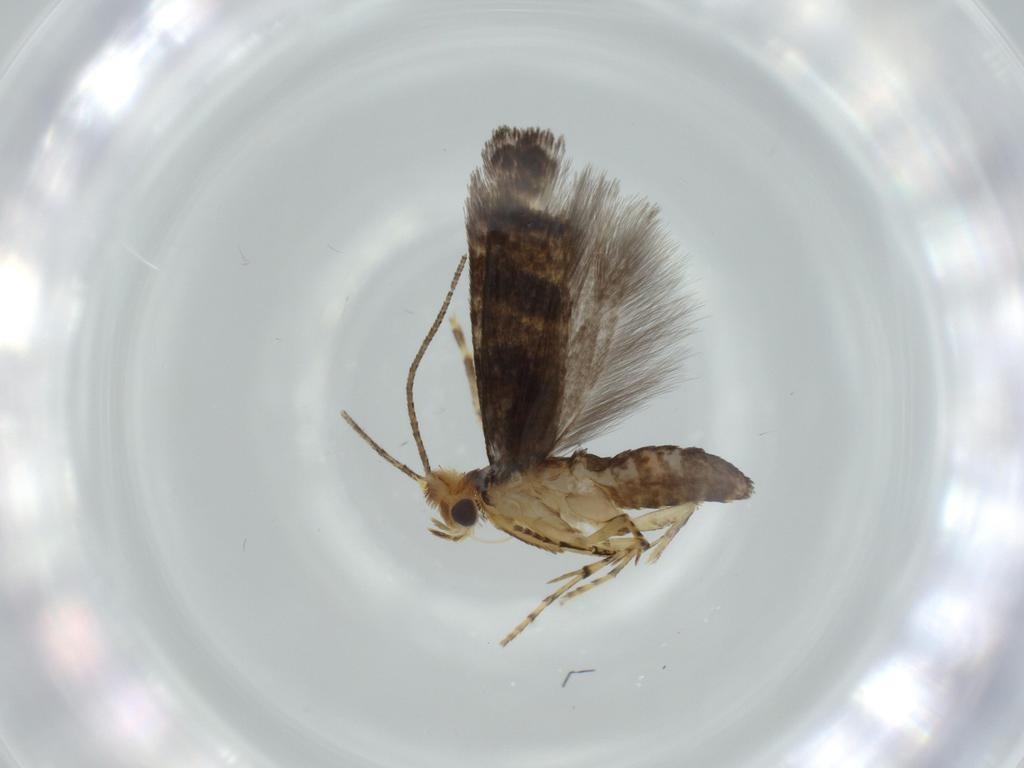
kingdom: Animalia
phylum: Arthropoda
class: Insecta
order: Lepidoptera
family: Argyresthiidae
